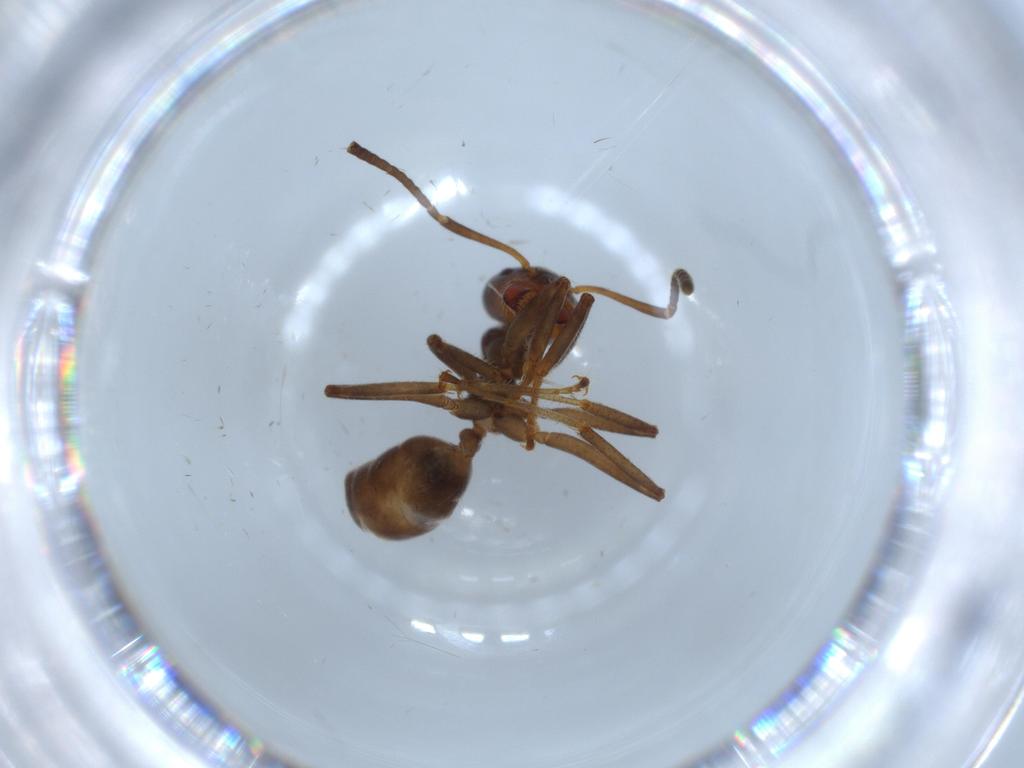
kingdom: Animalia
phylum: Arthropoda
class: Insecta
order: Hymenoptera
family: Formicidae
